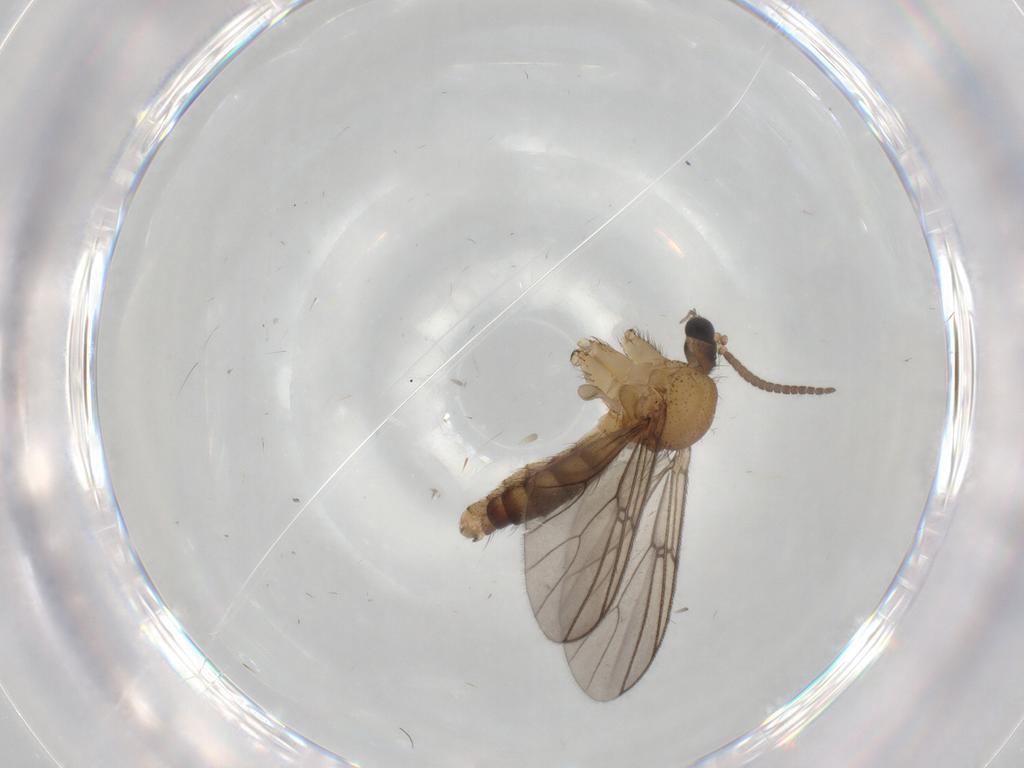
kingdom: Animalia
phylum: Arthropoda
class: Insecta
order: Diptera
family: Mycetophilidae
